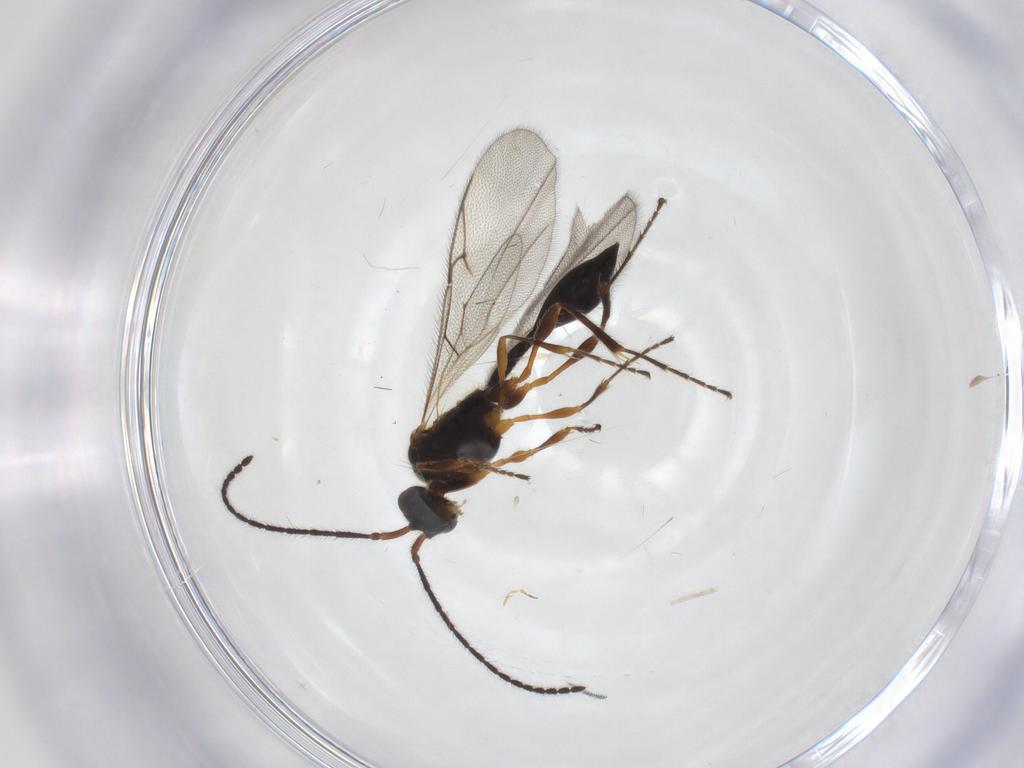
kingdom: Animalia
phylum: Arthropoda
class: Insecta
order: Hymenoptera
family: Diapriidae
